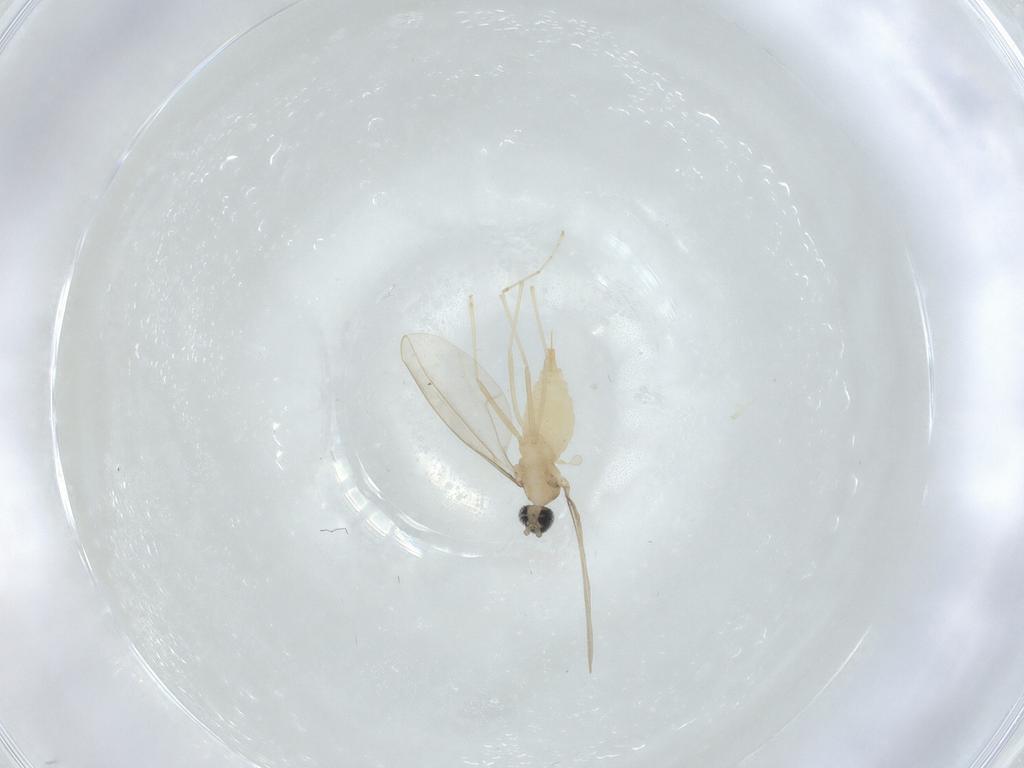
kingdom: Animalia
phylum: Arthropoda
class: Insecta
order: Diptera
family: Cecidomyiidae
